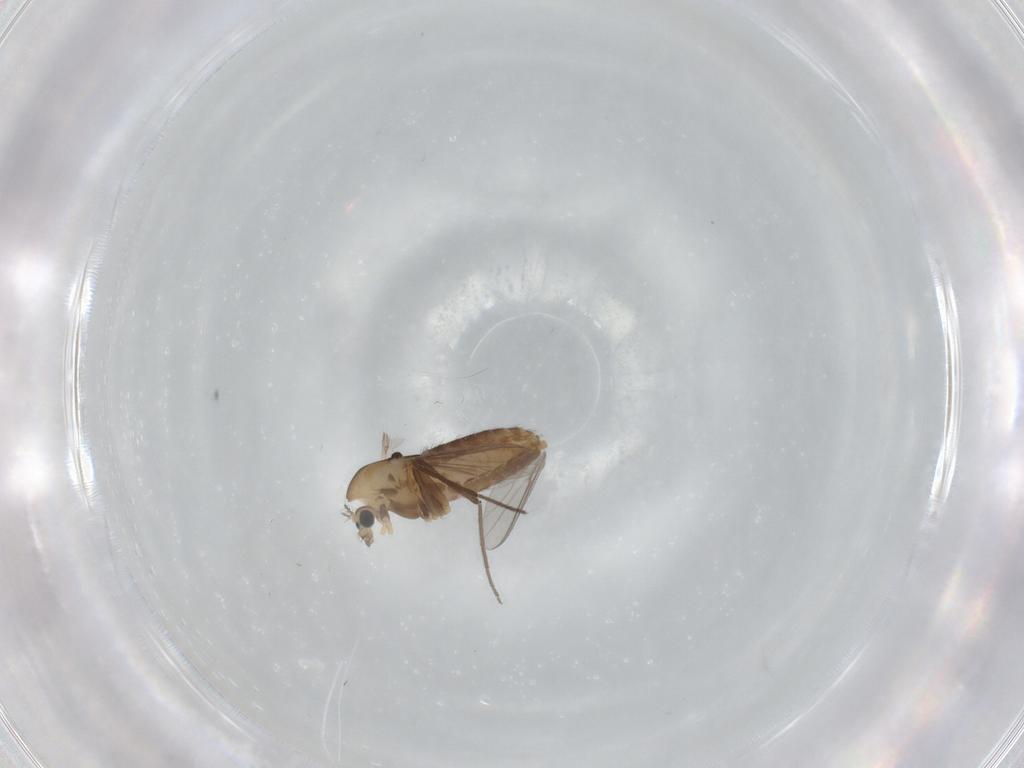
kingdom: Animalia
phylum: Arthropoda
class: Insecta
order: Diptera
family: Chironomidae
